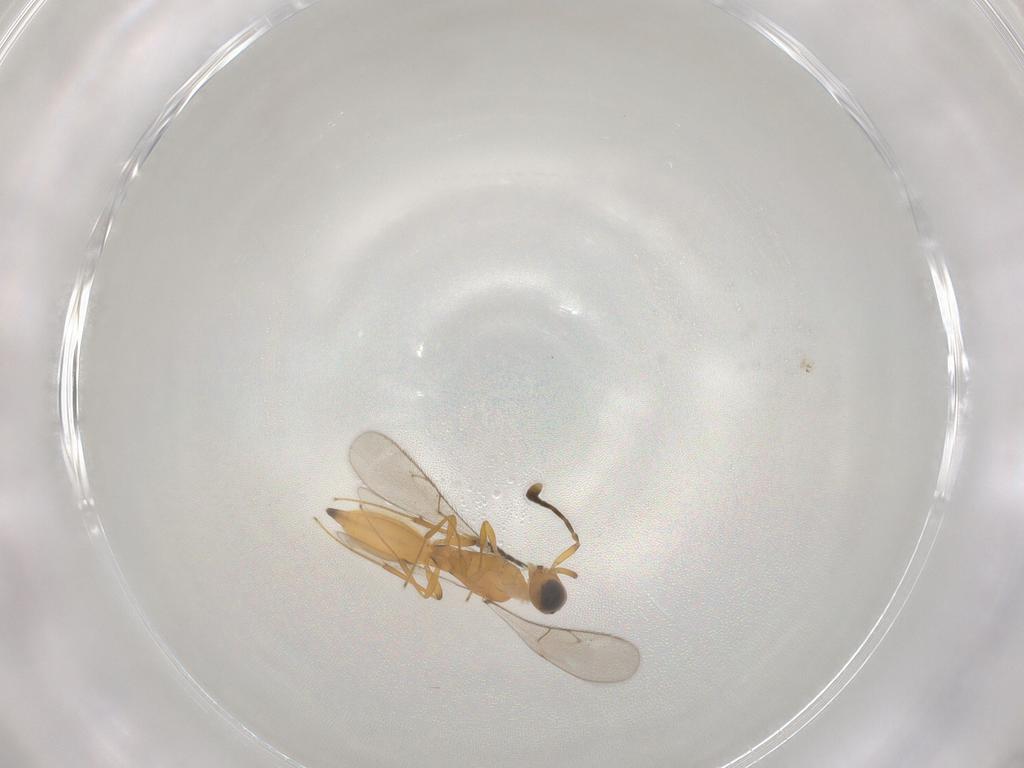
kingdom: Animalia
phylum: Arthropoda
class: Insecta
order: Hymenoptera
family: Scelionidae
